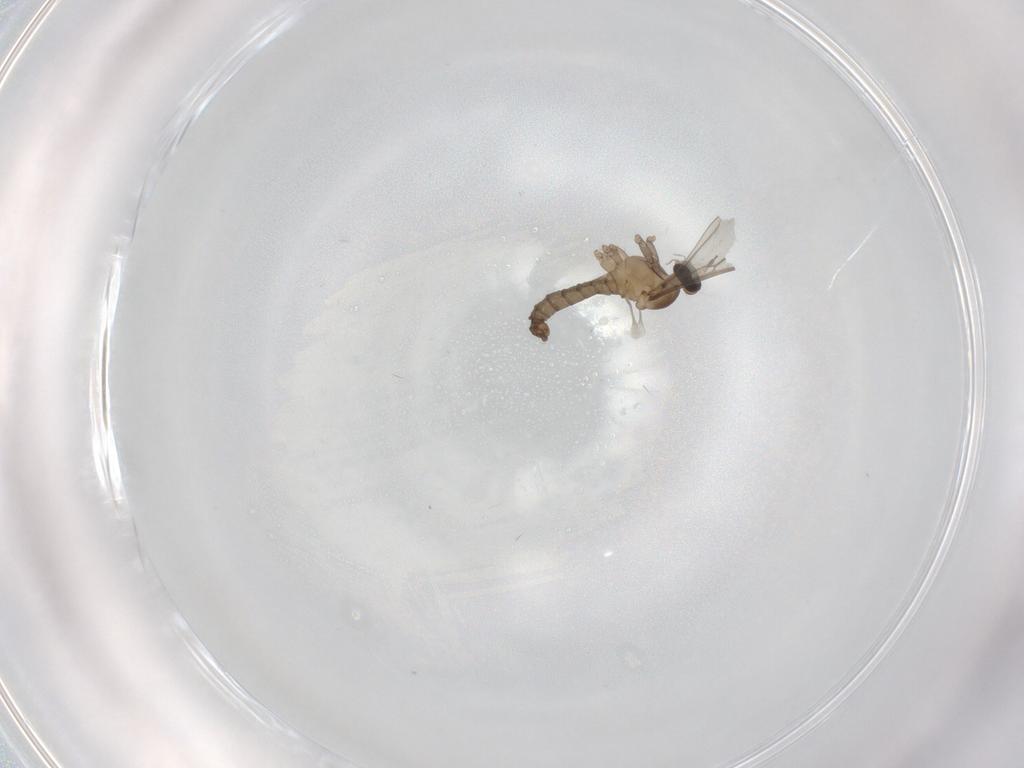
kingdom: Animalia
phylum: Arthropoda
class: Insecta
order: Diptera
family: Cecidomyiidae
